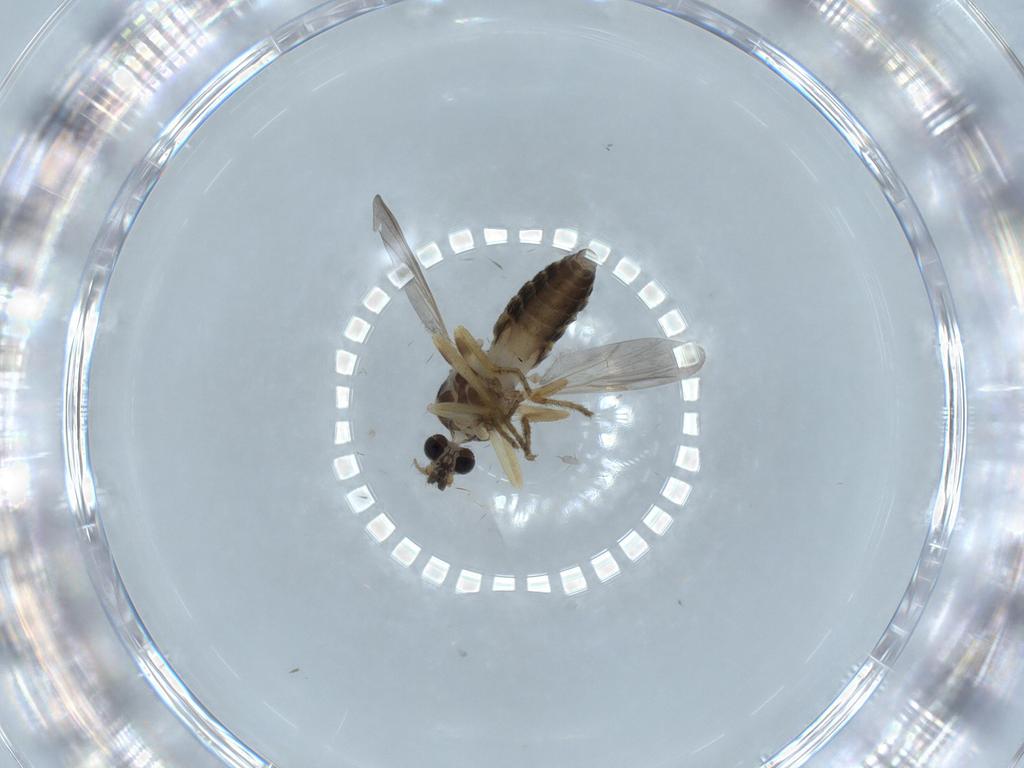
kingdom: Animalia
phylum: Arthropoda
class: Insecta
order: Diptera
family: Ceratopogonidae
